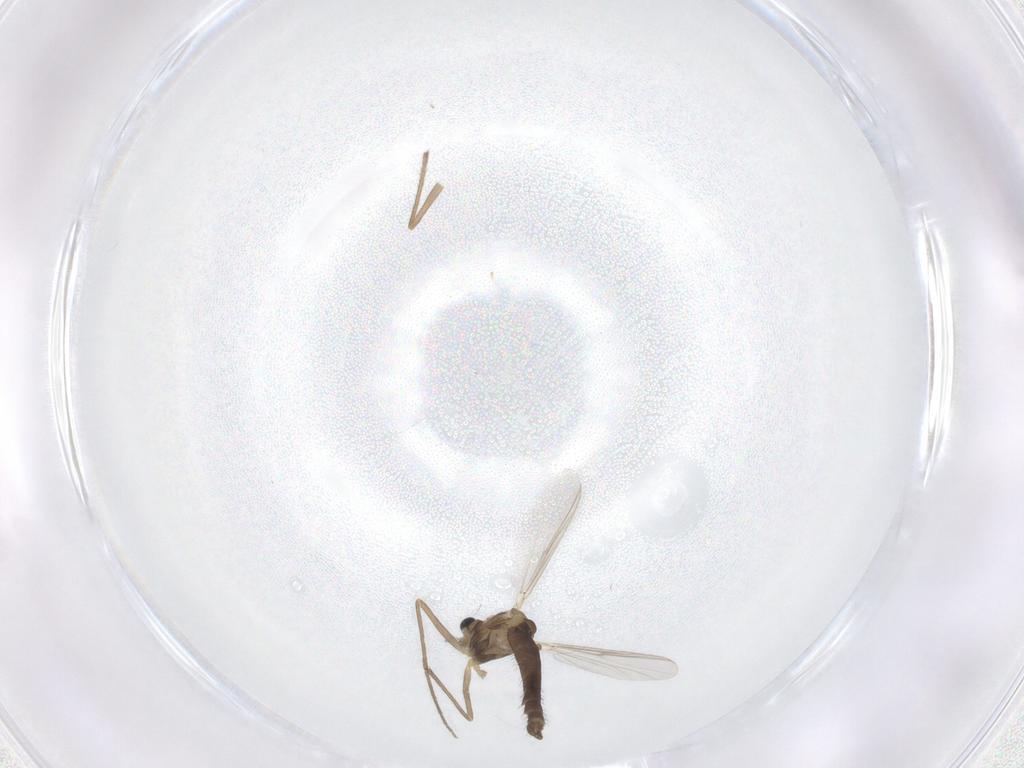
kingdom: Animalia
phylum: Arthropoda
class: Insecta
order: Diptera
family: Chironomidae
